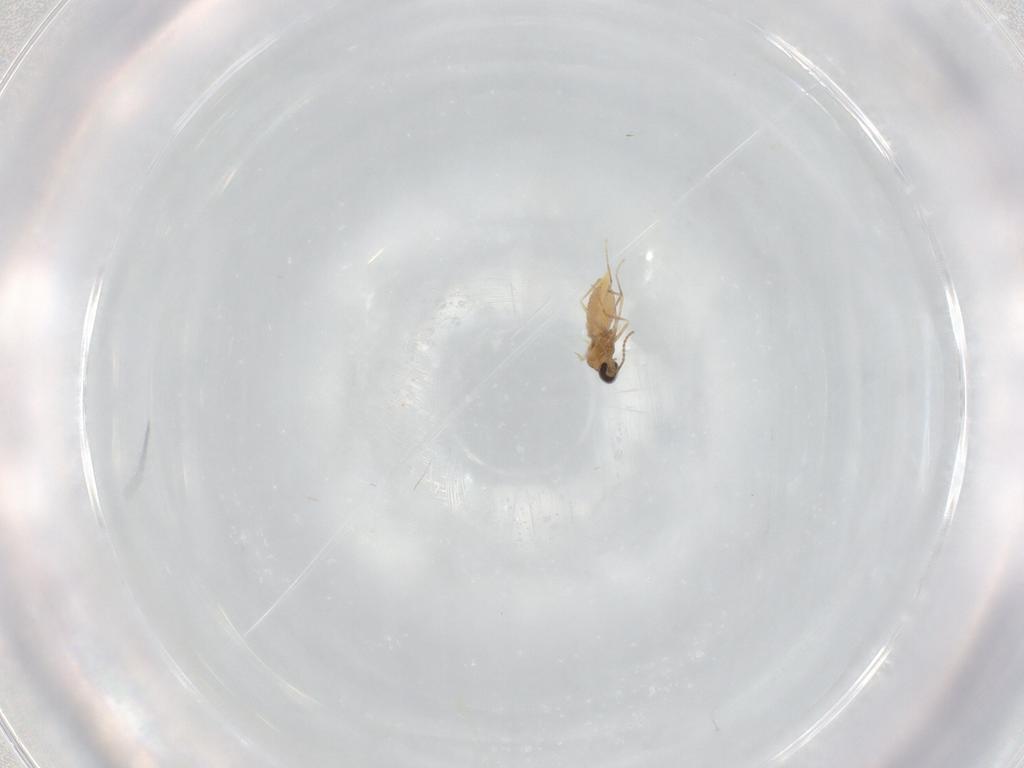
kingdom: Animalia
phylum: Arthropoda
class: Insecta
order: Diptera
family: Cecidomyiidae
